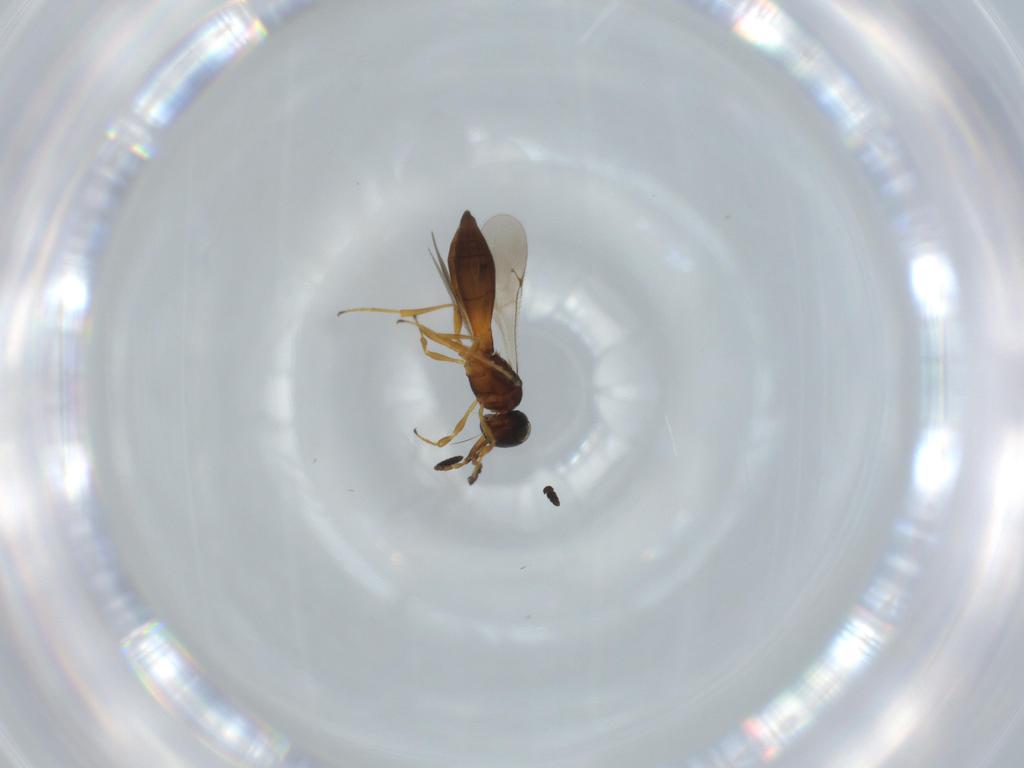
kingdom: Animalia
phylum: Arthropoda
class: Insecta
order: Hymenoptera
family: Scelionidae
